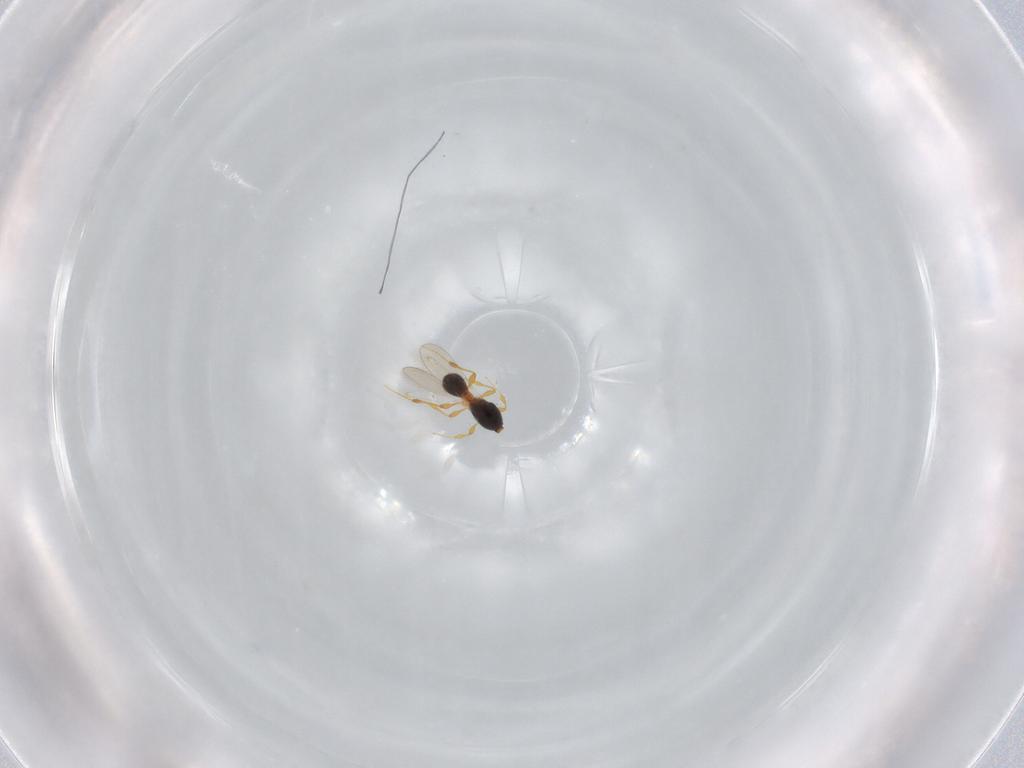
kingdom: Animalia
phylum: Arthropoda
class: Insecta
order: Hymenoptera
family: Platygastridae
